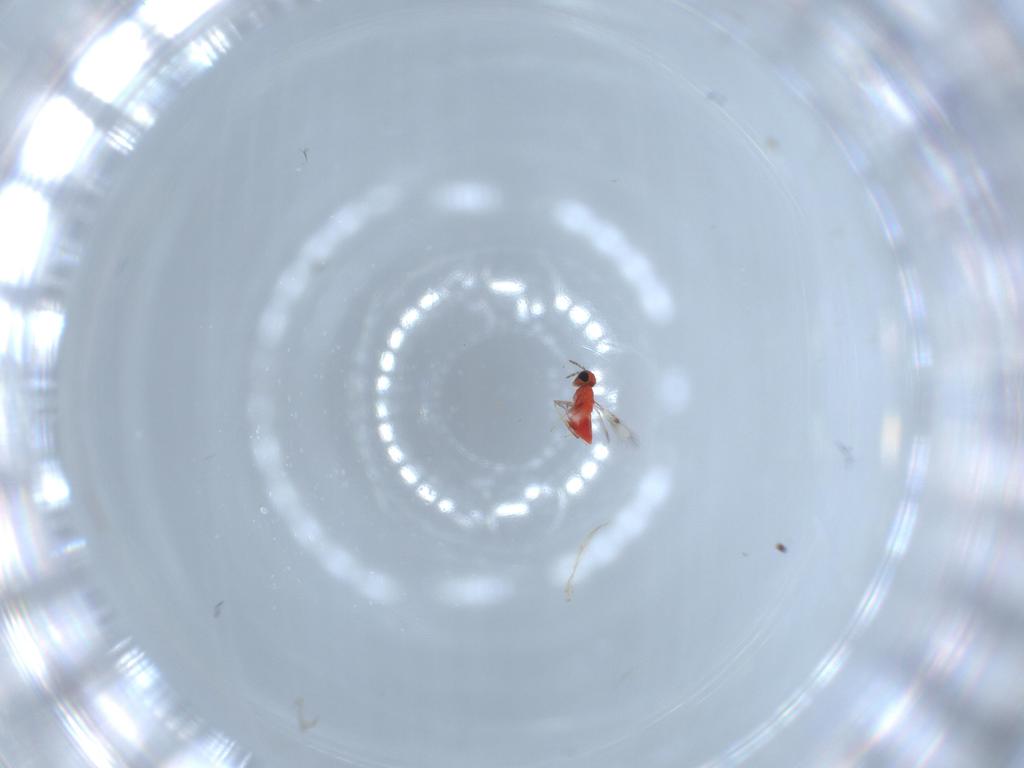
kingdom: Animalia
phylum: Arthropoda
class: Insecta
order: Hymenoptera
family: Trichogrammatidae
